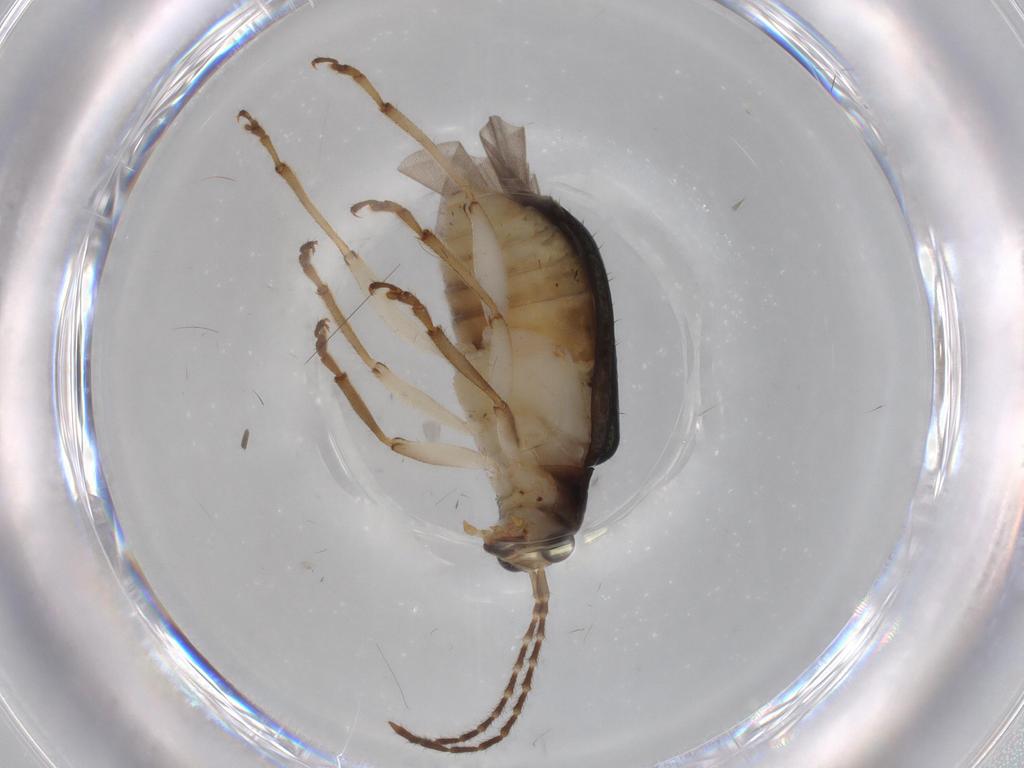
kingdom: Animalia
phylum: Arthropoda
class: Insecta
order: Coleoptera
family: Chrysomelidae
